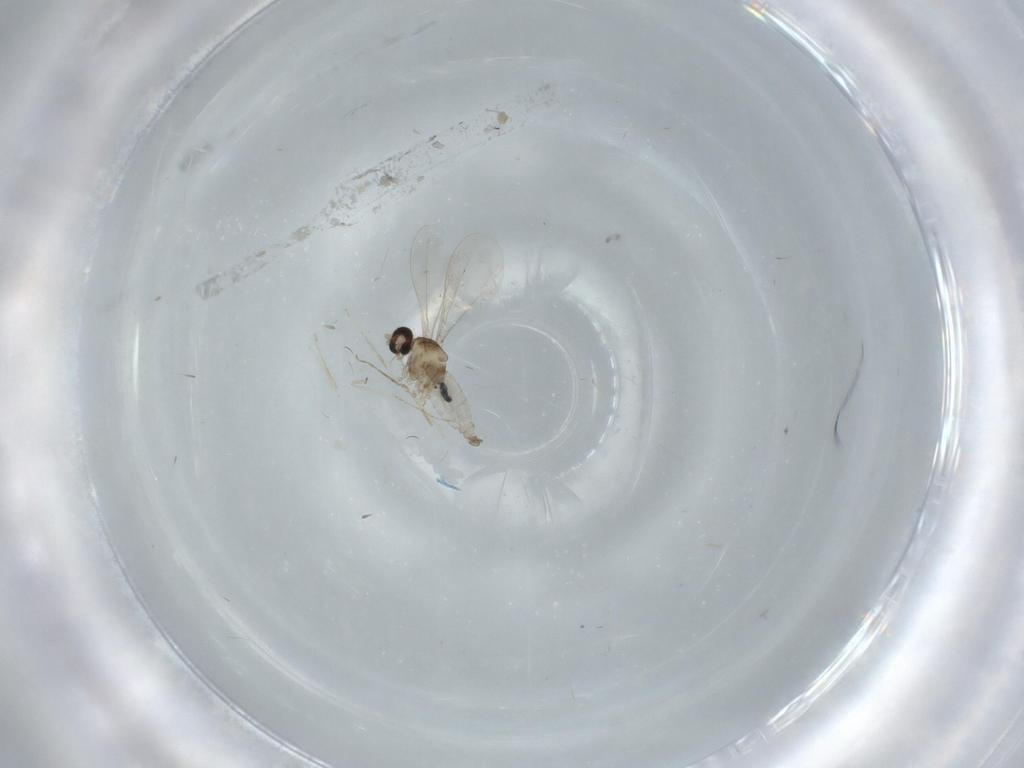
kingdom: Animalia
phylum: Arthropoda
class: Insecta
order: Diptera
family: Cecidomyiidae
